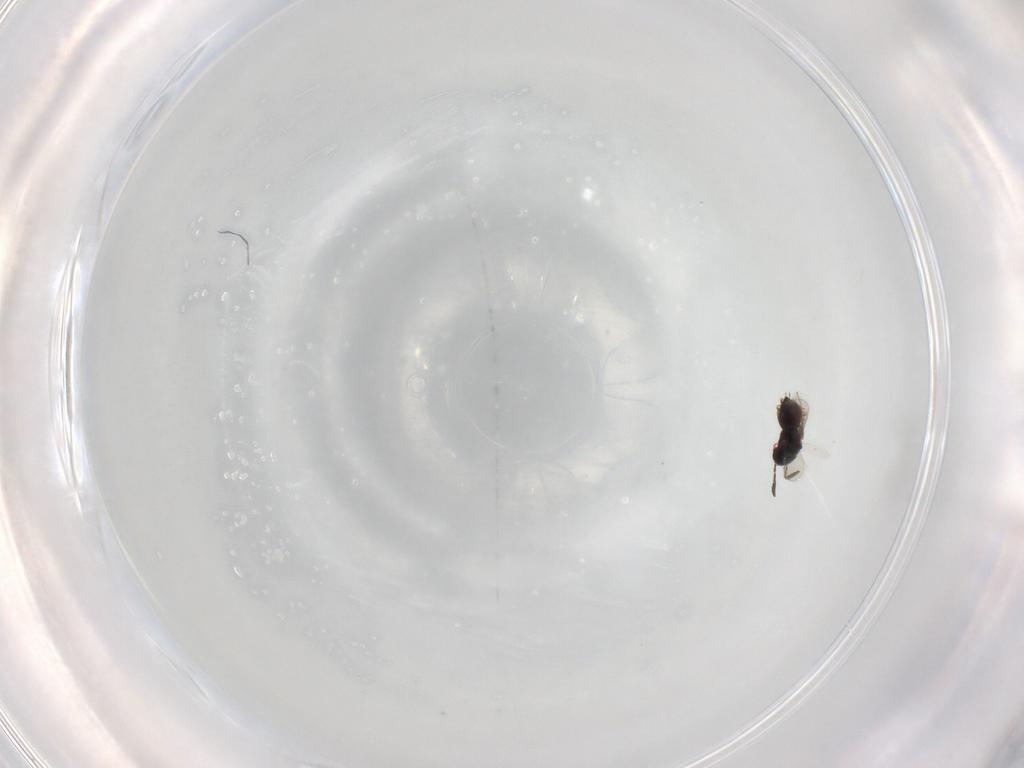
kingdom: Animalia
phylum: Arthropoda
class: Insecta
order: Hymenoptera
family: Scelionidae
